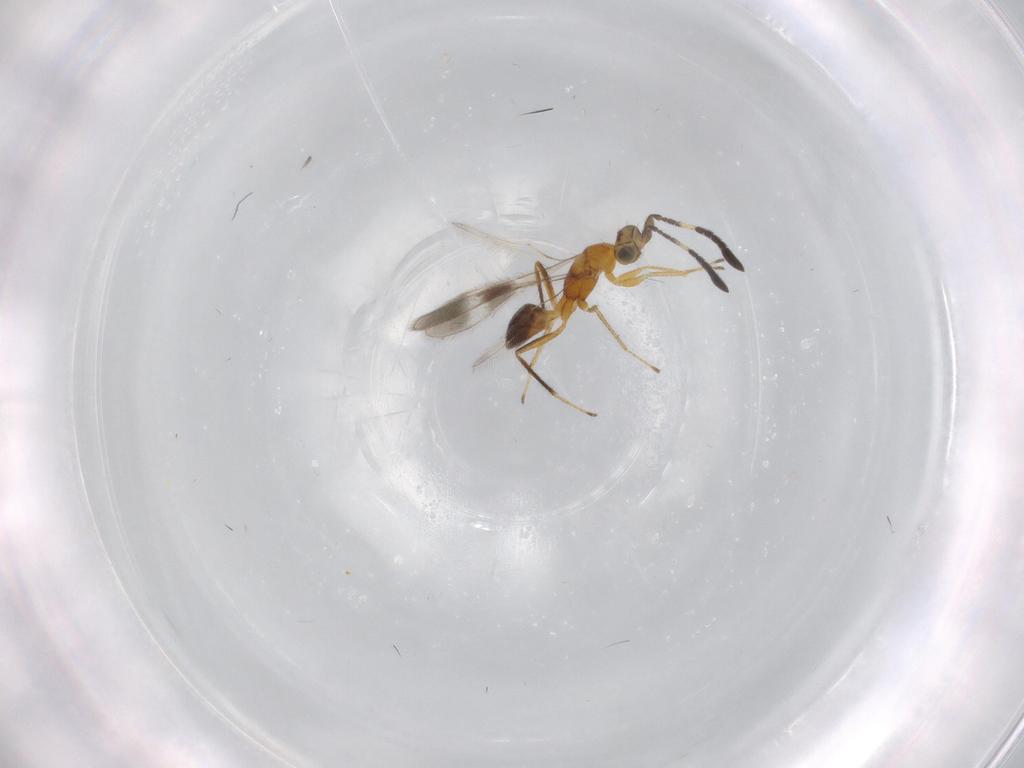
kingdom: Animalia
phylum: Arthropoda
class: Insecta
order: Hymenoptera
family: Mymaridae
